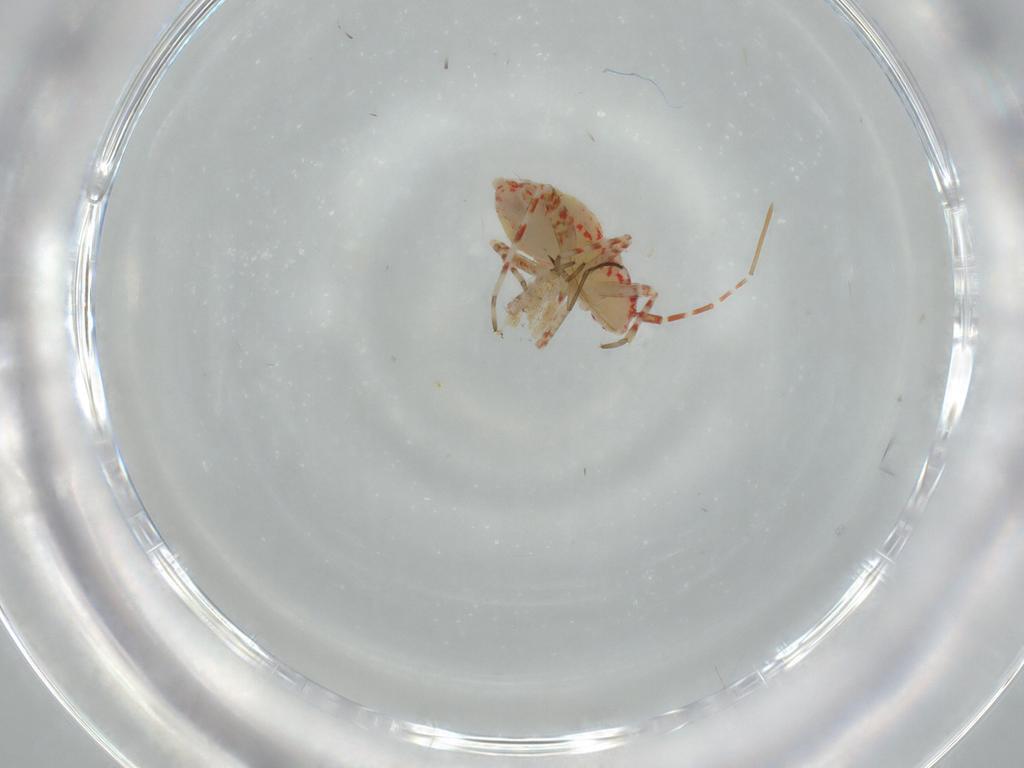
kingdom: Animalia
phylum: Arthropoda
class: Insecta
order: Hemiptera
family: Miridae
